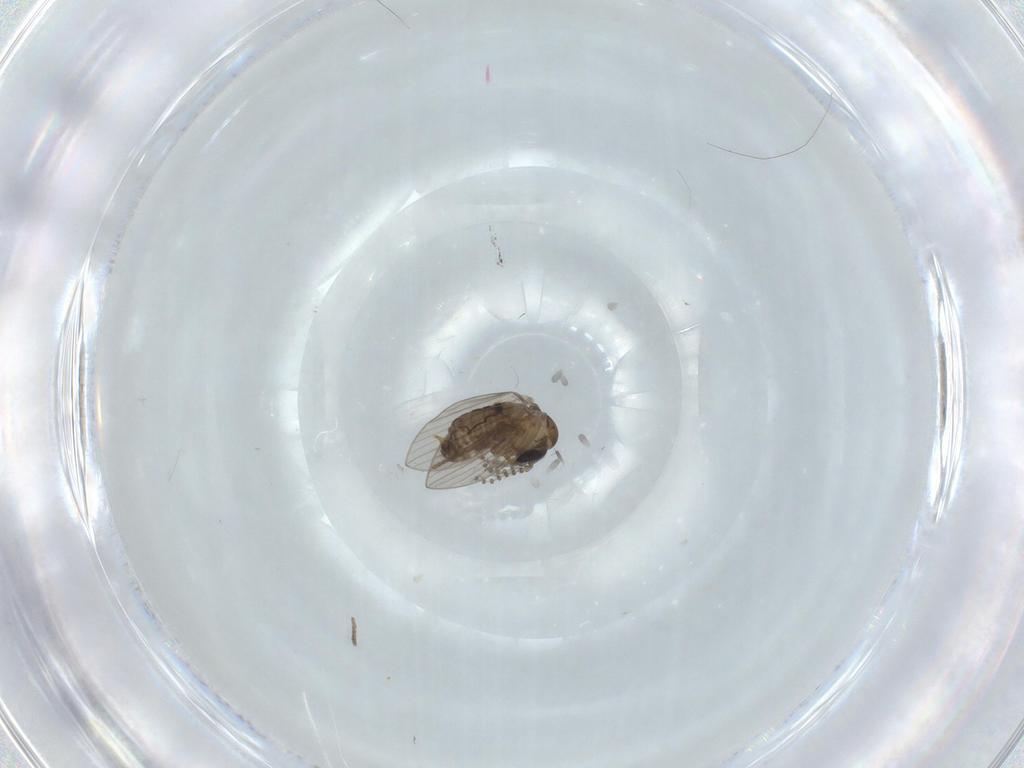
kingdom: Animalia
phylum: Arthropoda
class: Insecta
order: Diptera
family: Psychodidae
